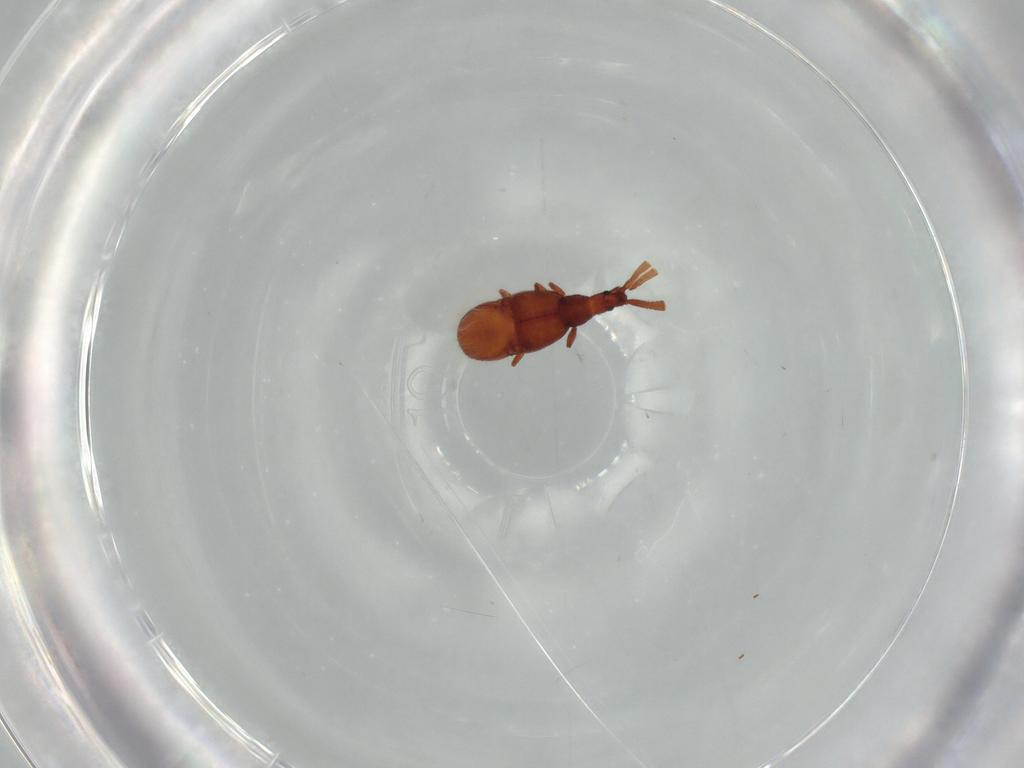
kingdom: Animalia
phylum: Arthropoda
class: Insecta
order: Coleoptera
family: Staphylinidae
